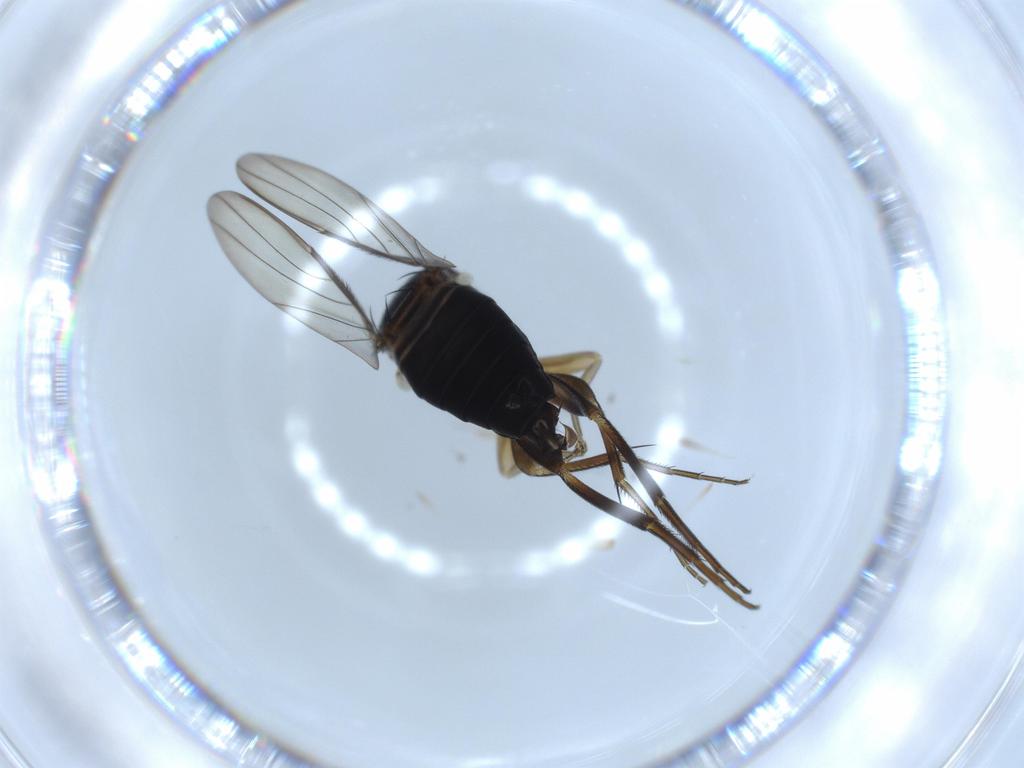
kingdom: Animalia
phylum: Arthropoda
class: Insecta
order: Diptera
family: Phoridae
